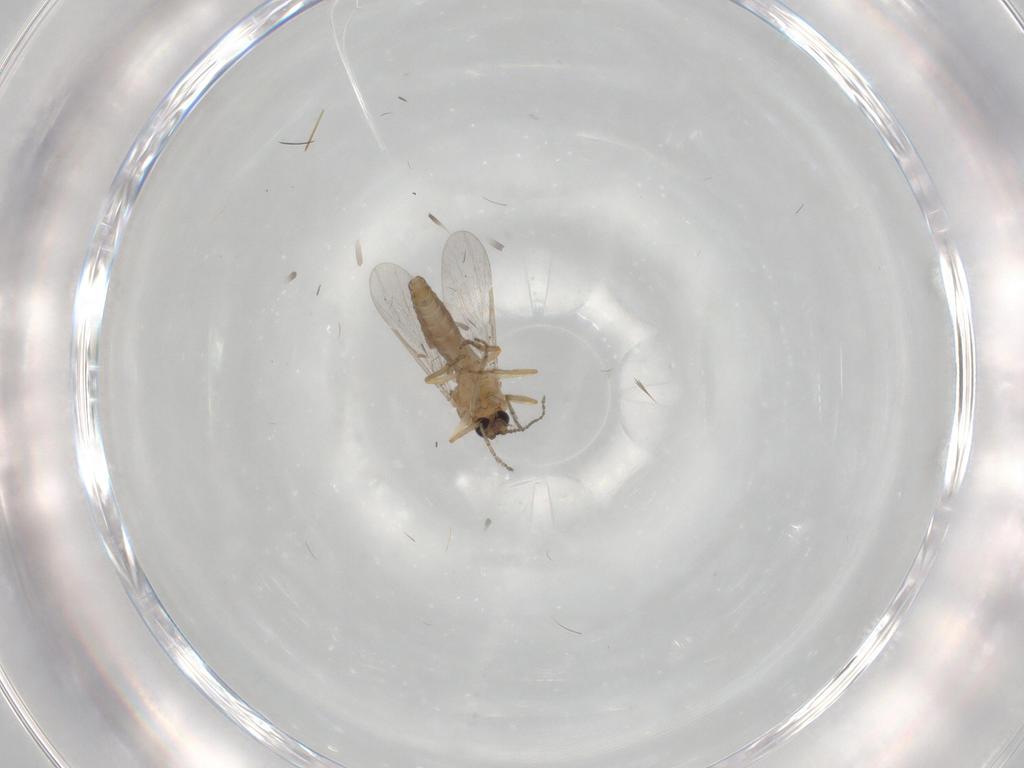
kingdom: Animalia
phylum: Arthropoda
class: Insecta
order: Diptera
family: Ceratopogonidae
